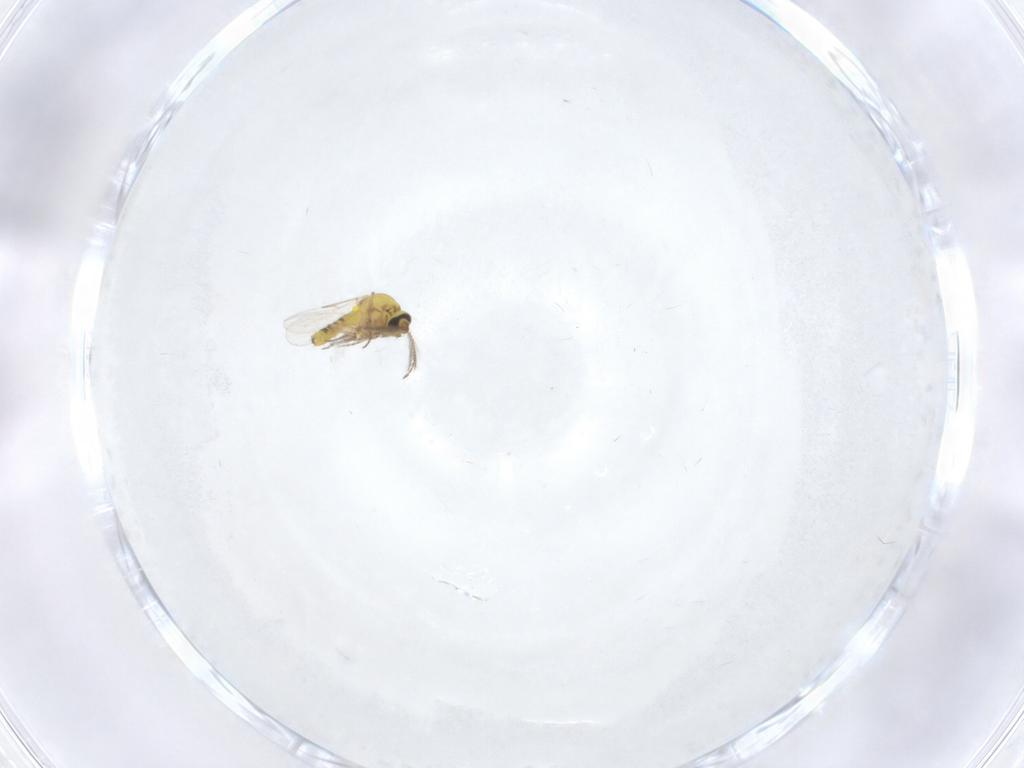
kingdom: Animalia
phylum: Arthropoda
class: Insecta
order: Diptera
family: Ceratopogonidae
